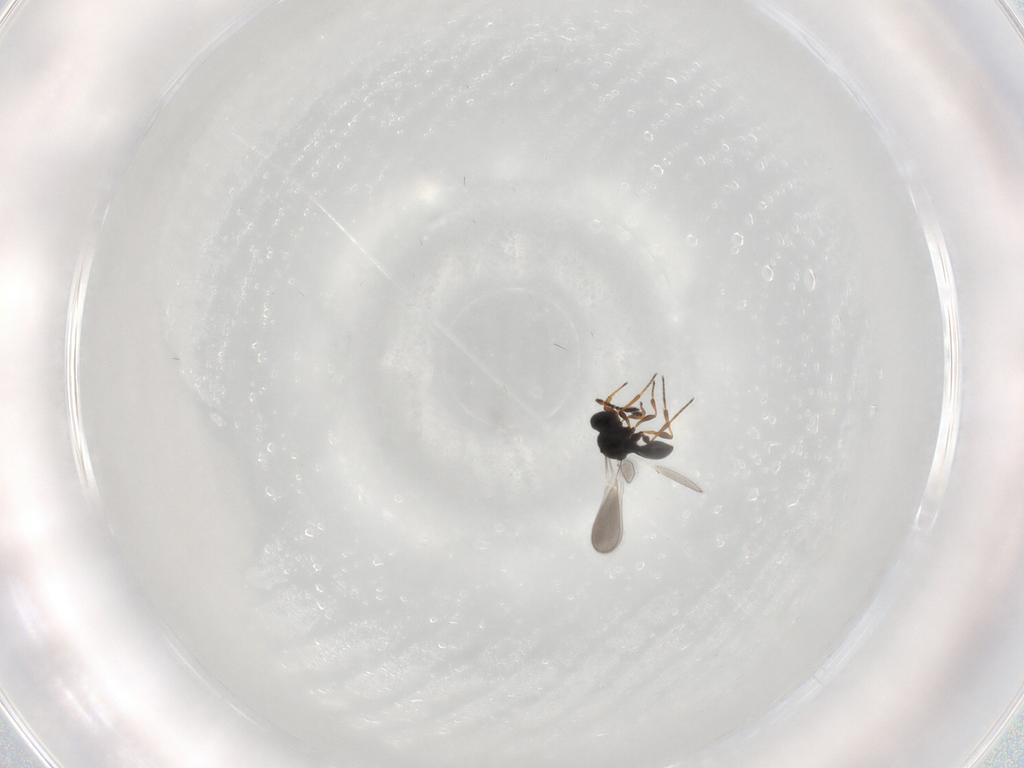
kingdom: Animalia
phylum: Arthropoda
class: Insecta
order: Hymenoptera
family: Platygastridae
